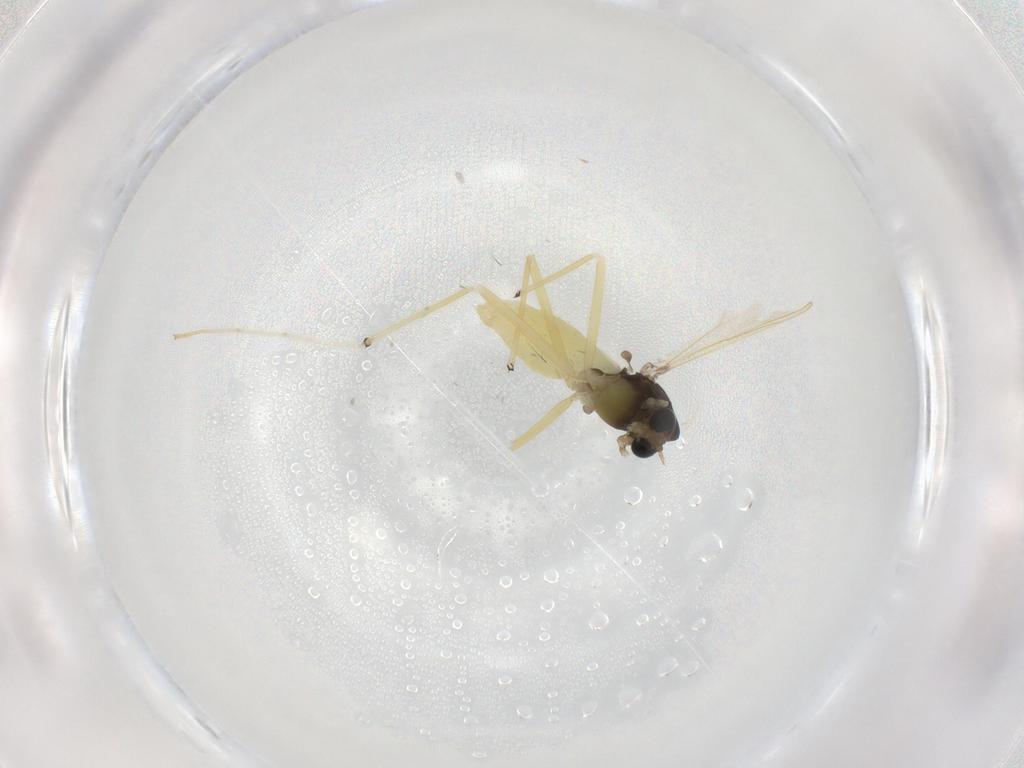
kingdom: Animalia
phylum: Arthropoda
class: Insecta
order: Diptera
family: Chironomidae
